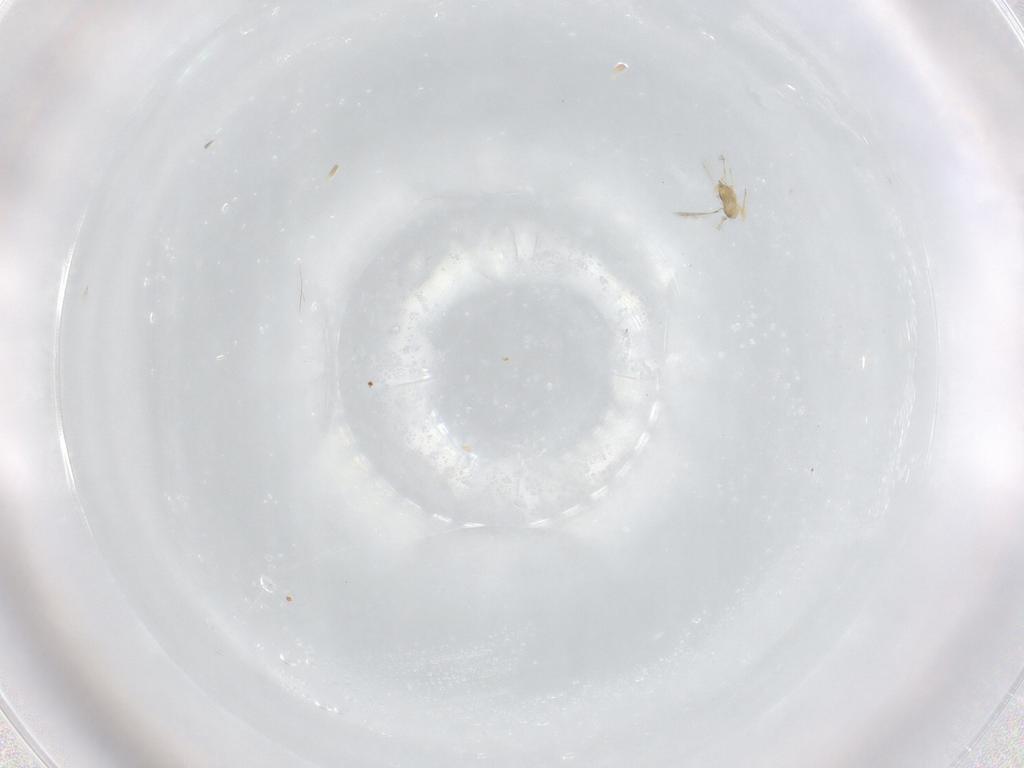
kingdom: Animalia
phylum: Arthropoda
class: Insecta
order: Hymenoptera
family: Ichneumonidae
